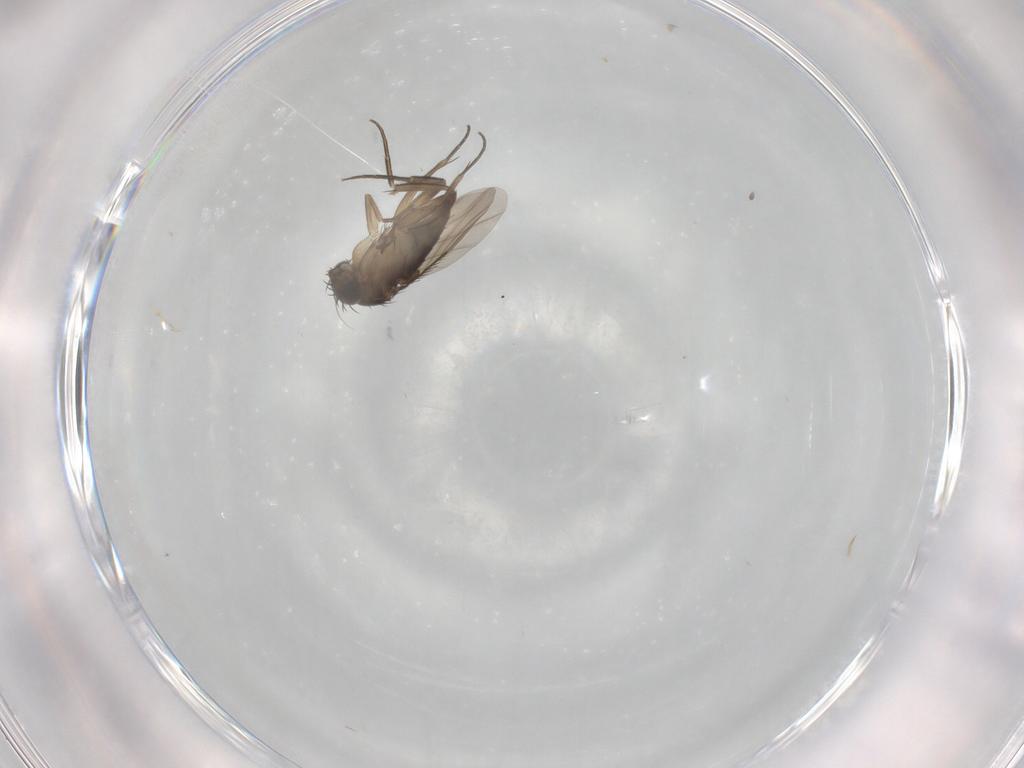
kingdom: Animalia
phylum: Arthropoda
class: Insecta
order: Diptera
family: Phoridae
